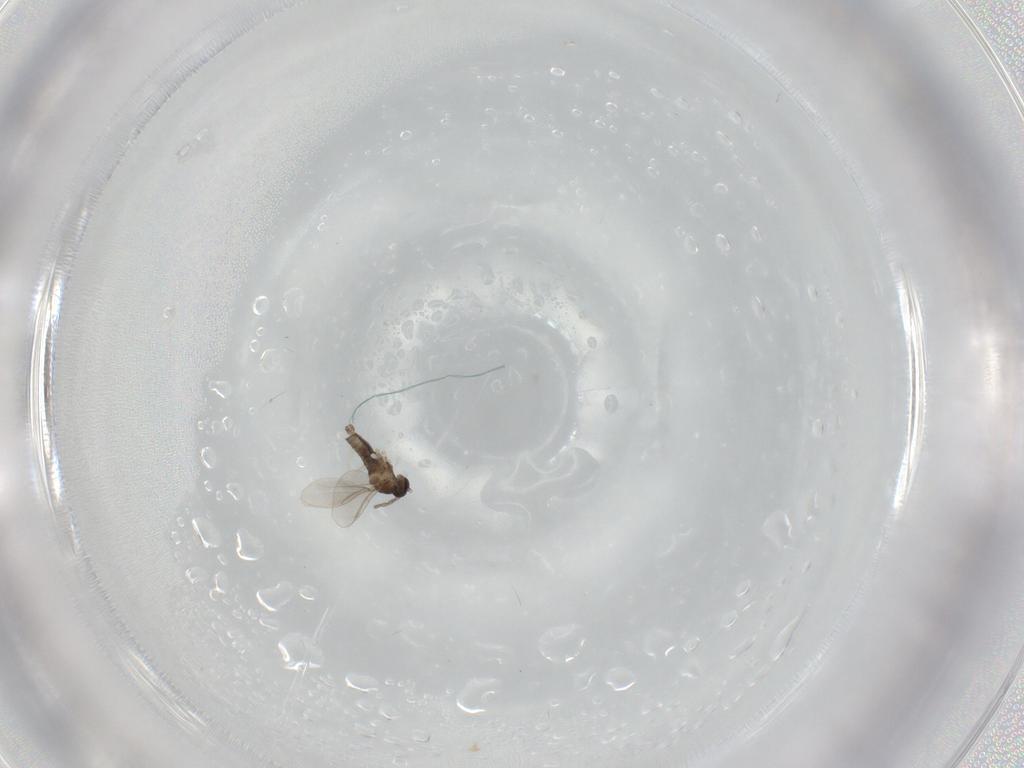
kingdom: Animalia
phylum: Arthropoda
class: Insecta
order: Diptera
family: Cecidomyiidae
